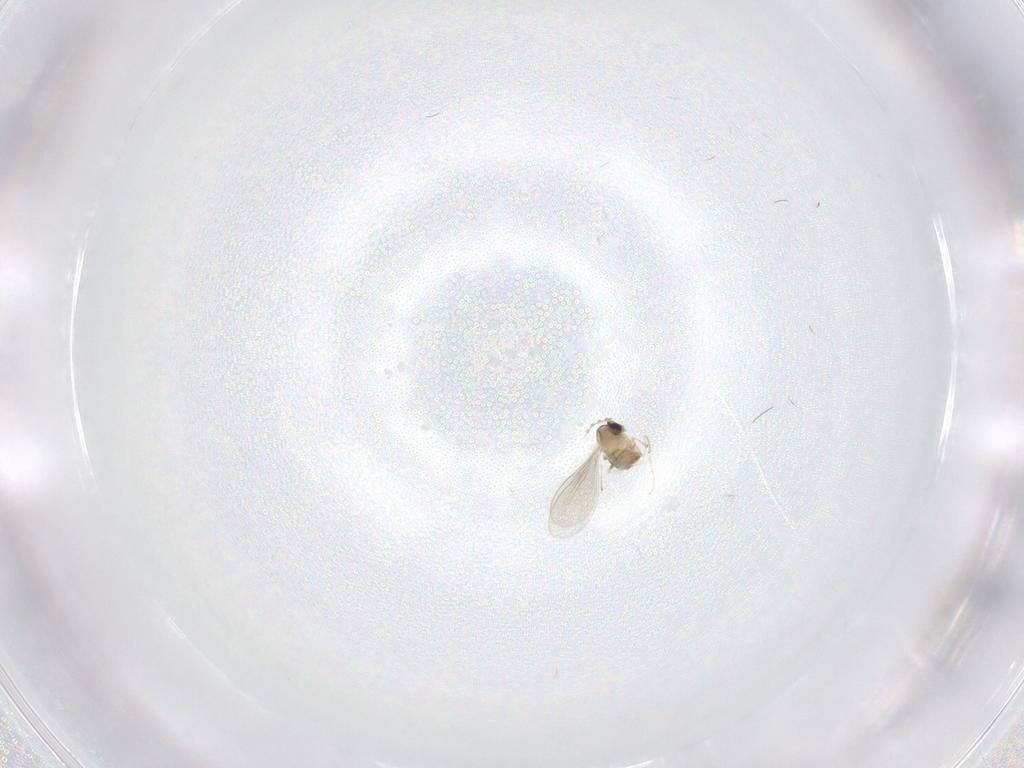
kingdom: Animalia
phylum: Arthropoda
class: Insecta
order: Diptera
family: Cecidomyiidae
